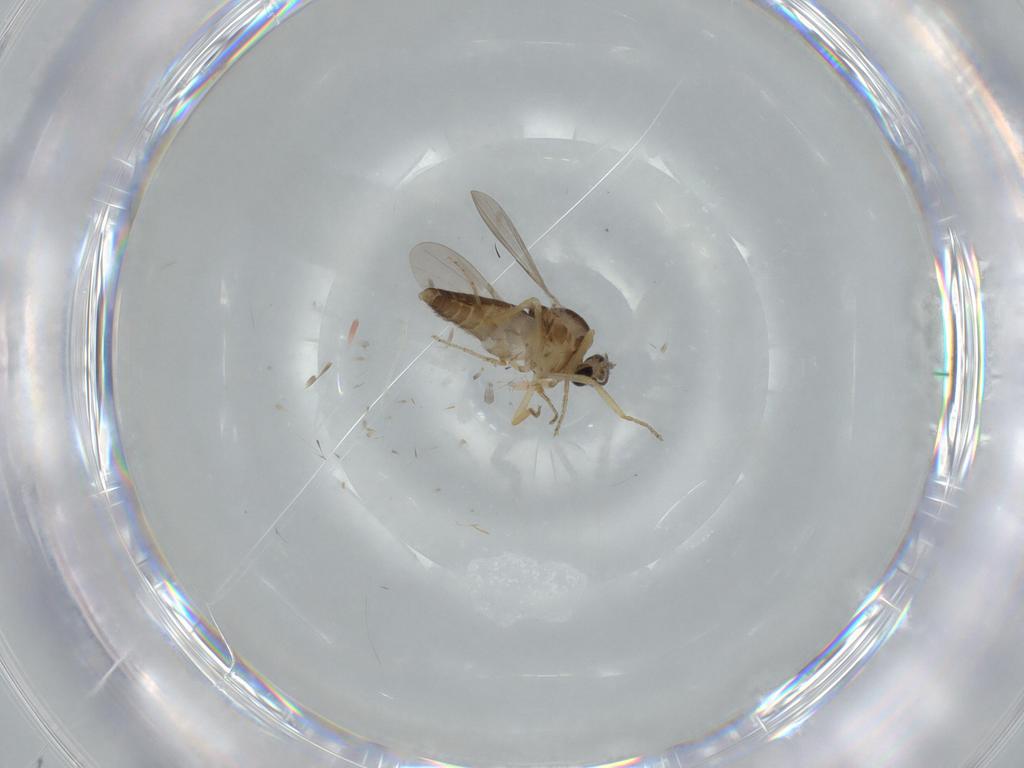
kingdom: Animalia
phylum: Arthropoda
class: Insecta
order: Diptera
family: Ceratopogonidae
